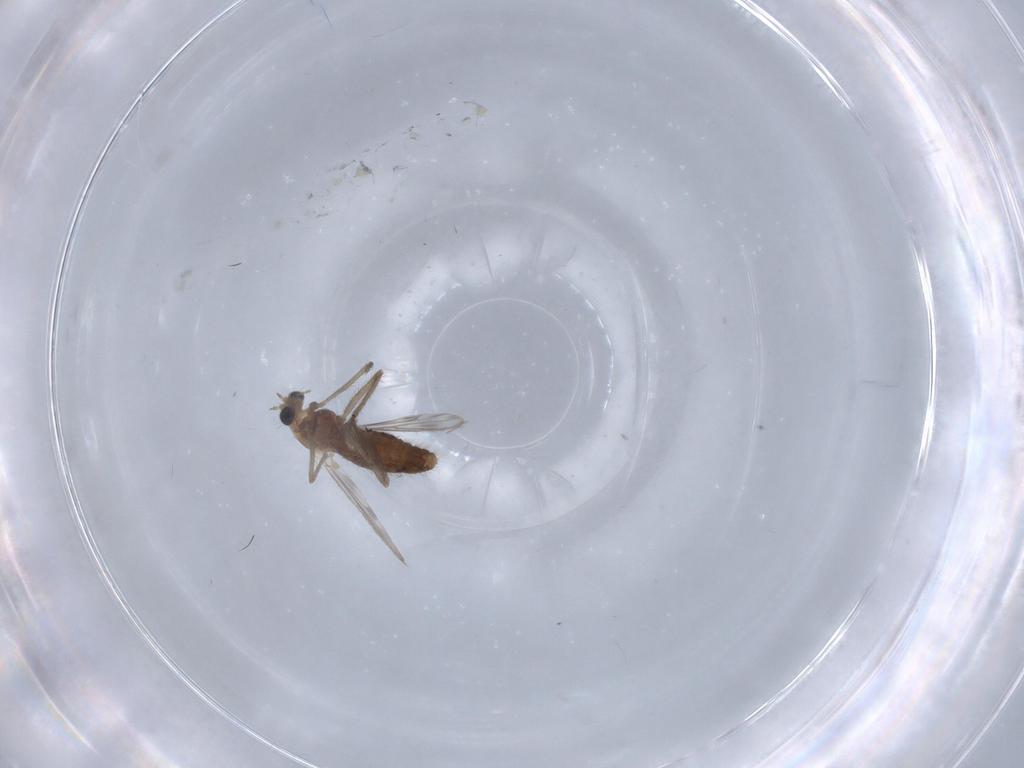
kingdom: Animalia
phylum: Arthropoda
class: Insecta
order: Diptera
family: Chironomidae
